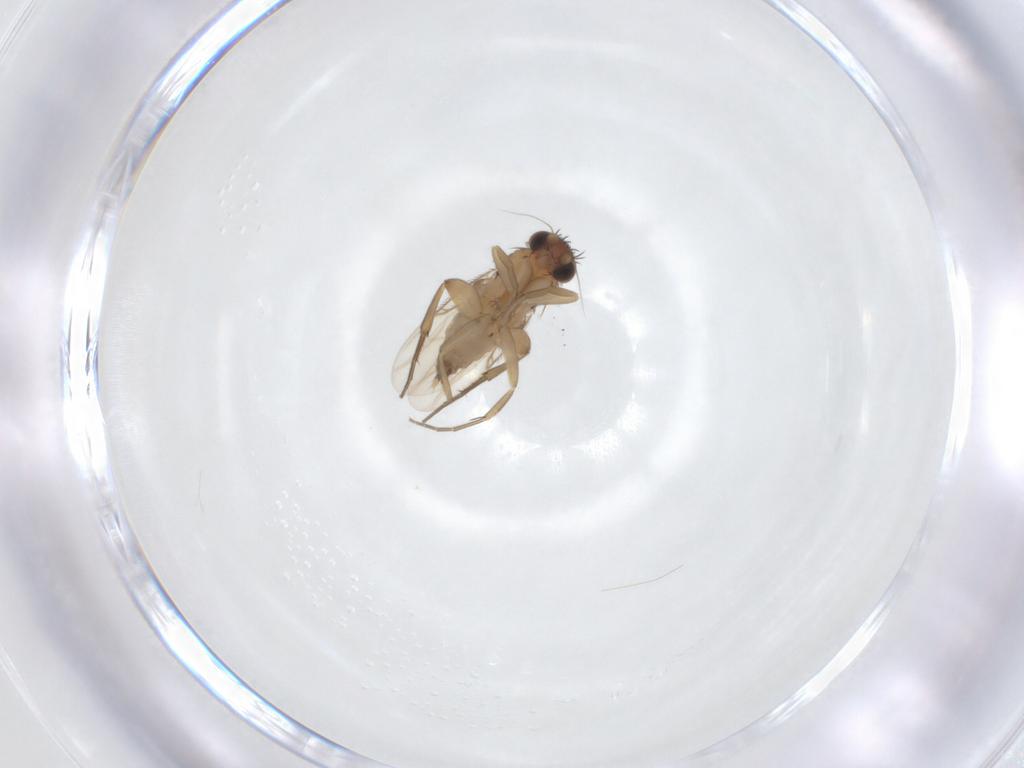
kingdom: Animalia
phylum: Arthropoda
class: Insecta
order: Diptera
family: Phoridae
